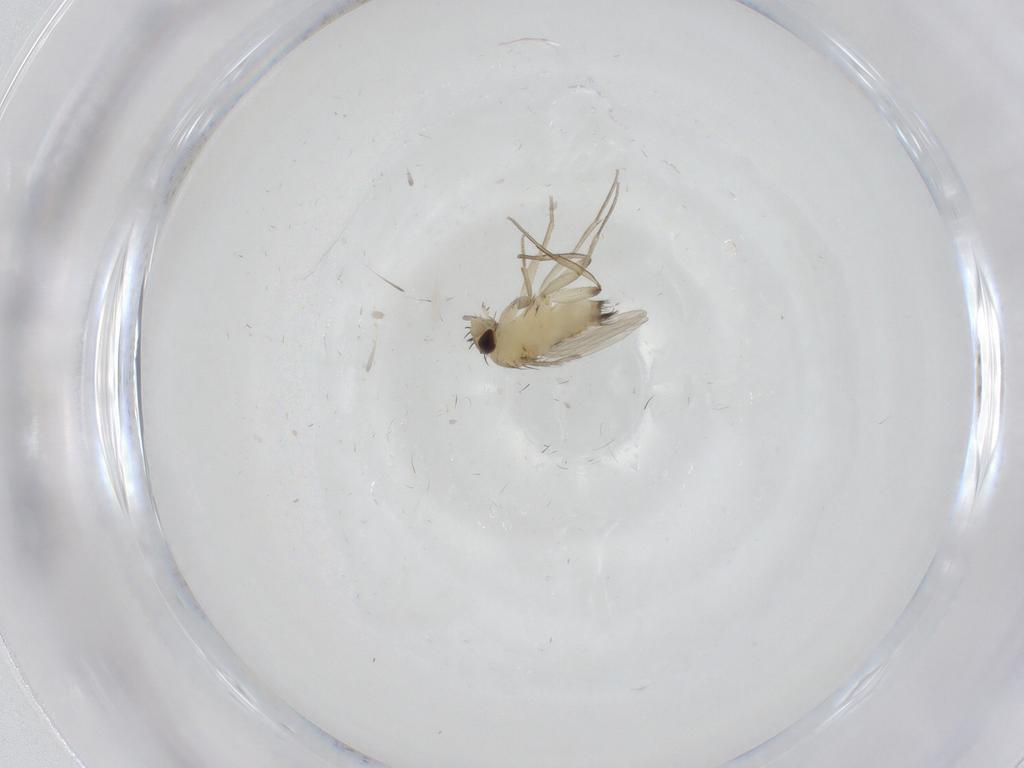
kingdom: Animalia
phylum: Arthropoda
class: Insecta
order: Diptera
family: Phoridae
